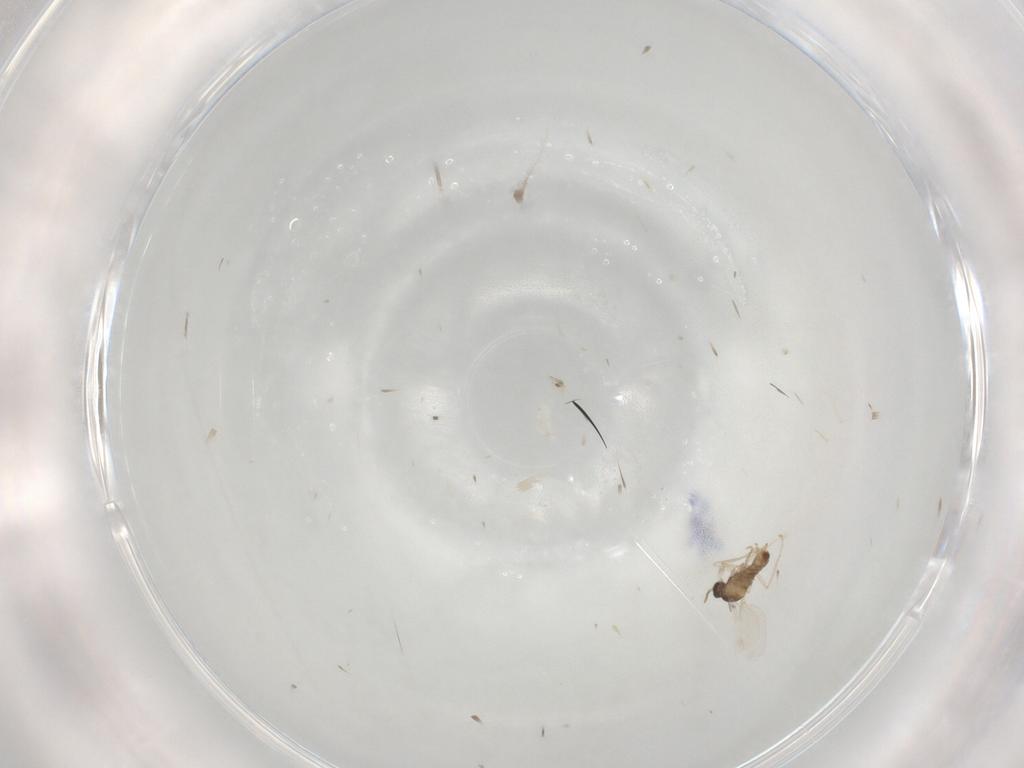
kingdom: Animalia
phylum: Arthropoda
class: Insecta
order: Diptera
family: Cecidomyiidae
